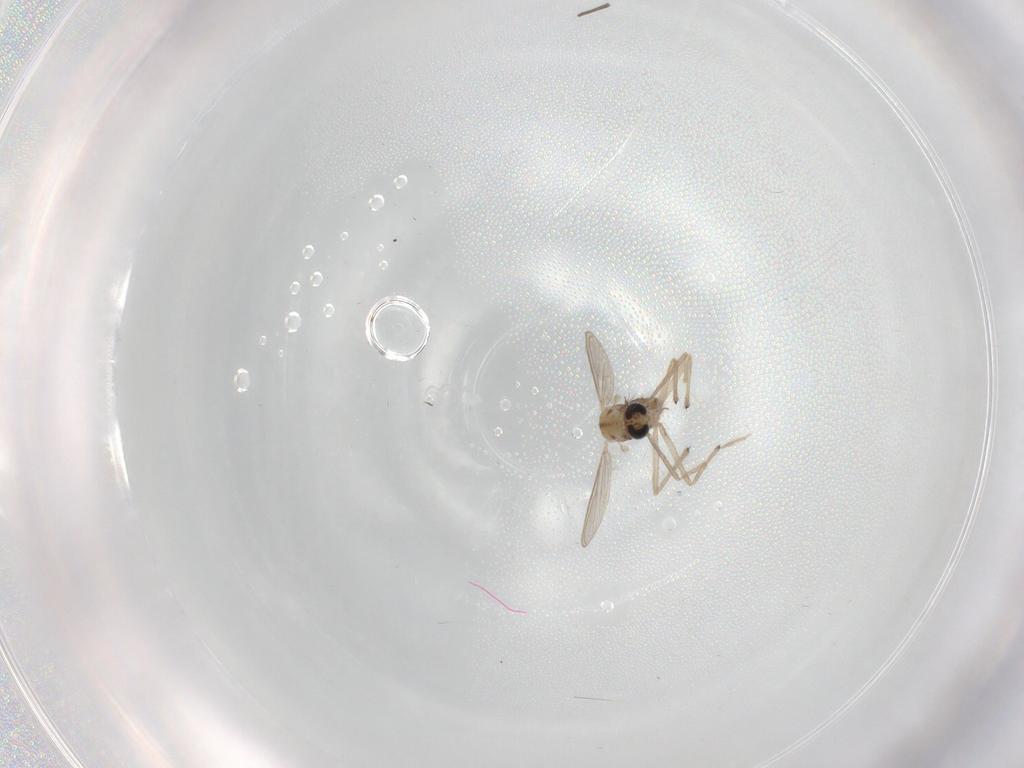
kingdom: Animalia
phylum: Arthropoda
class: Insecta
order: Diptera
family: Chironomidae
